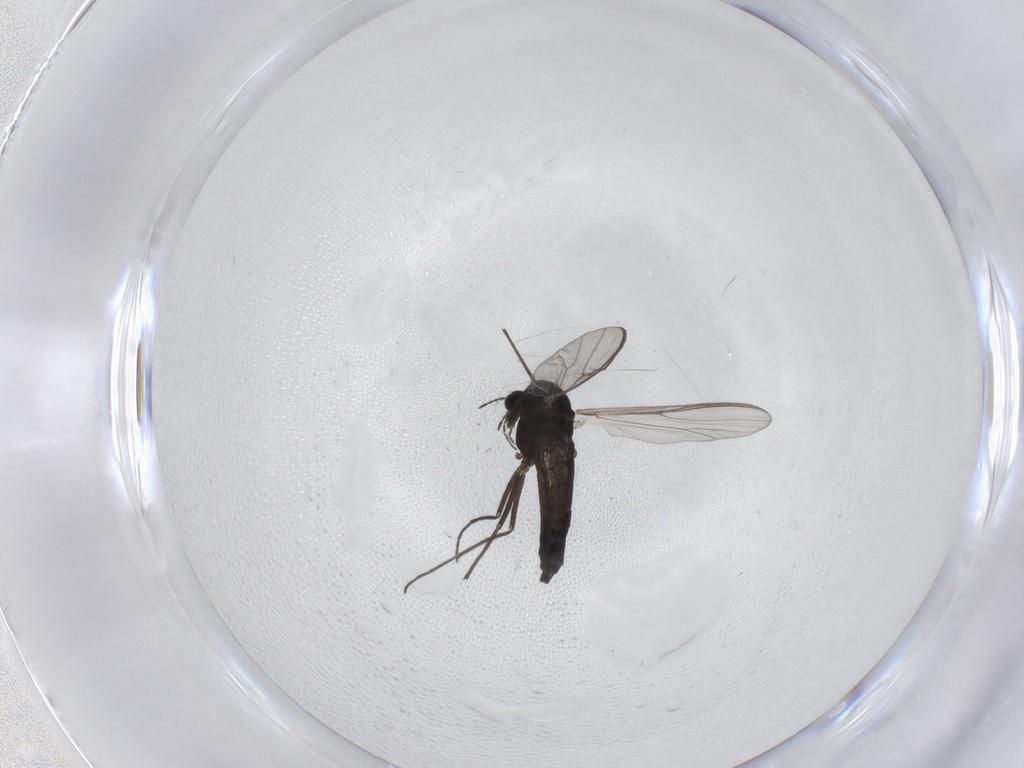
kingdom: Animalia
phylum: Arthropoda
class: Insecta
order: Diptera
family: Chironomidae
